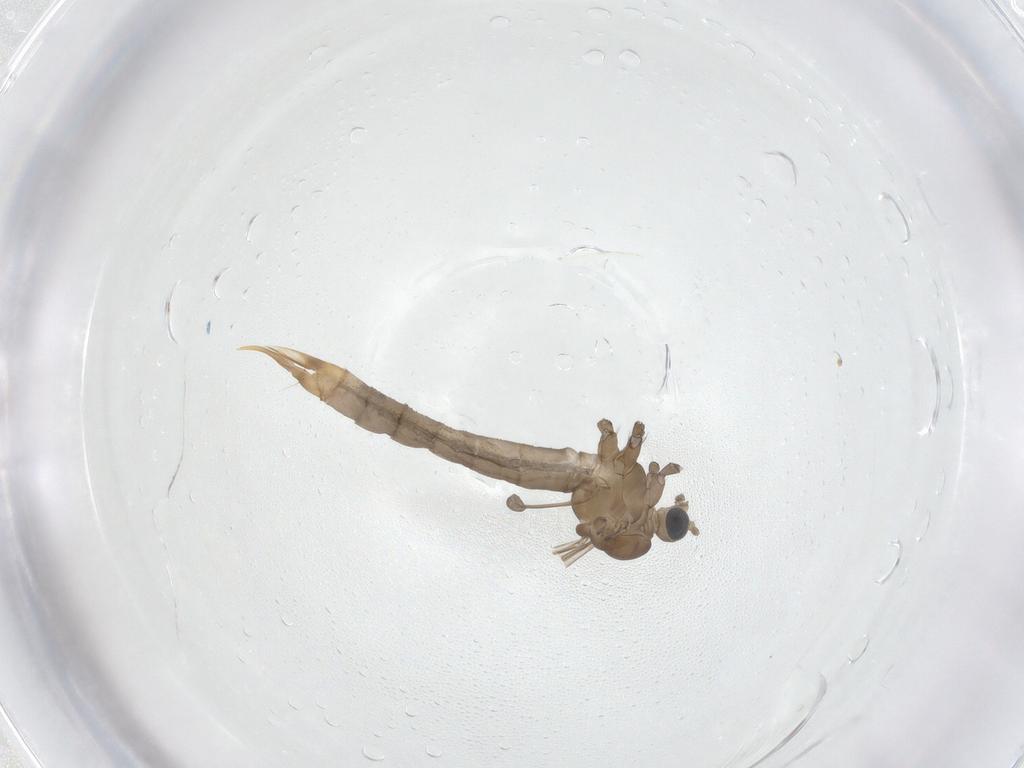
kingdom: Animalia
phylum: Arthropoda
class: Insecta
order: Diptera
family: Limoniidae
